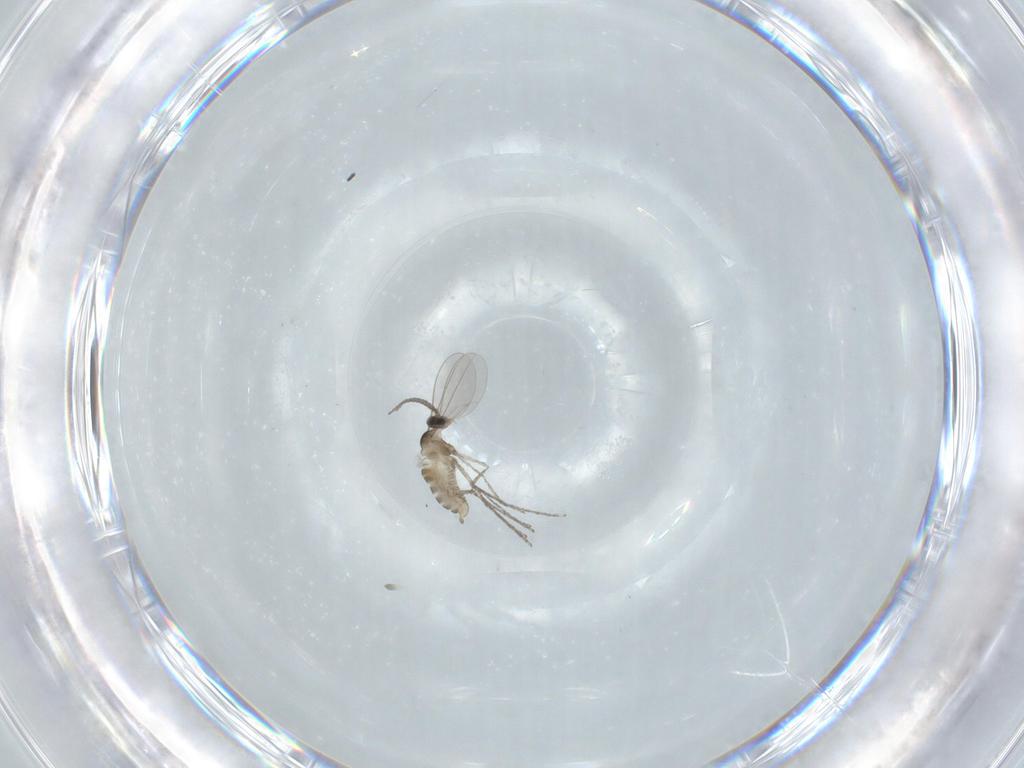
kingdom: Animalia
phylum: Arthropoda
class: Insecta
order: Diptera
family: Cecidomyiidae
